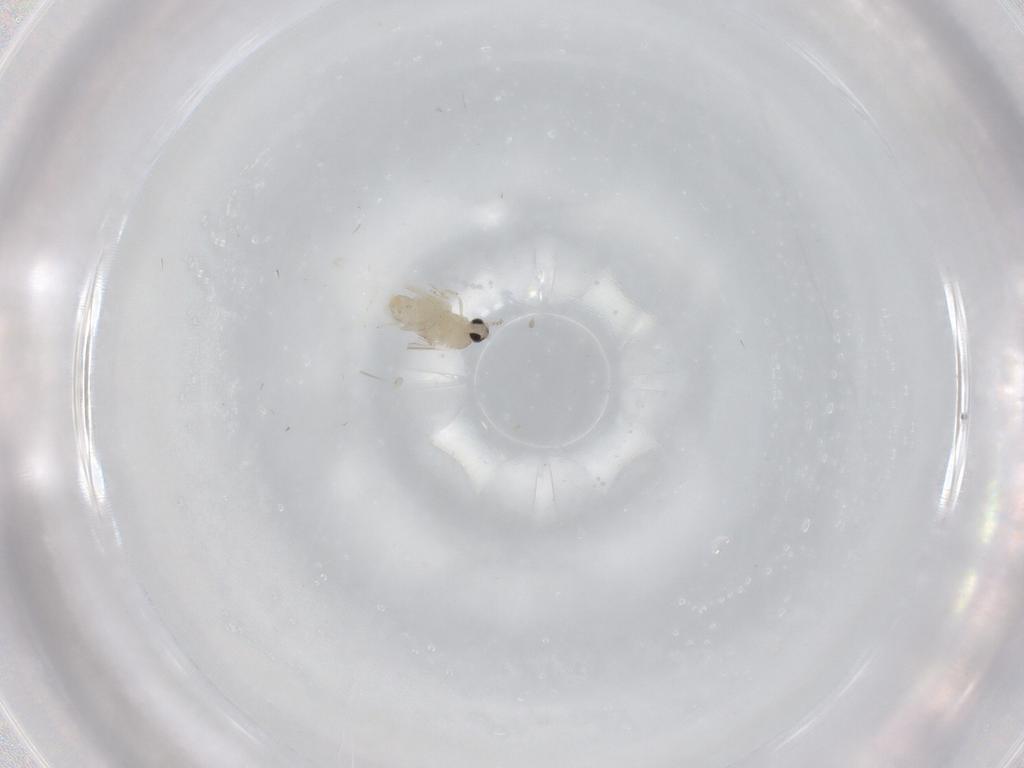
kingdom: Animalia
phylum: Arthropoda
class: Insecta
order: Diptera
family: Cecidomyiidae
